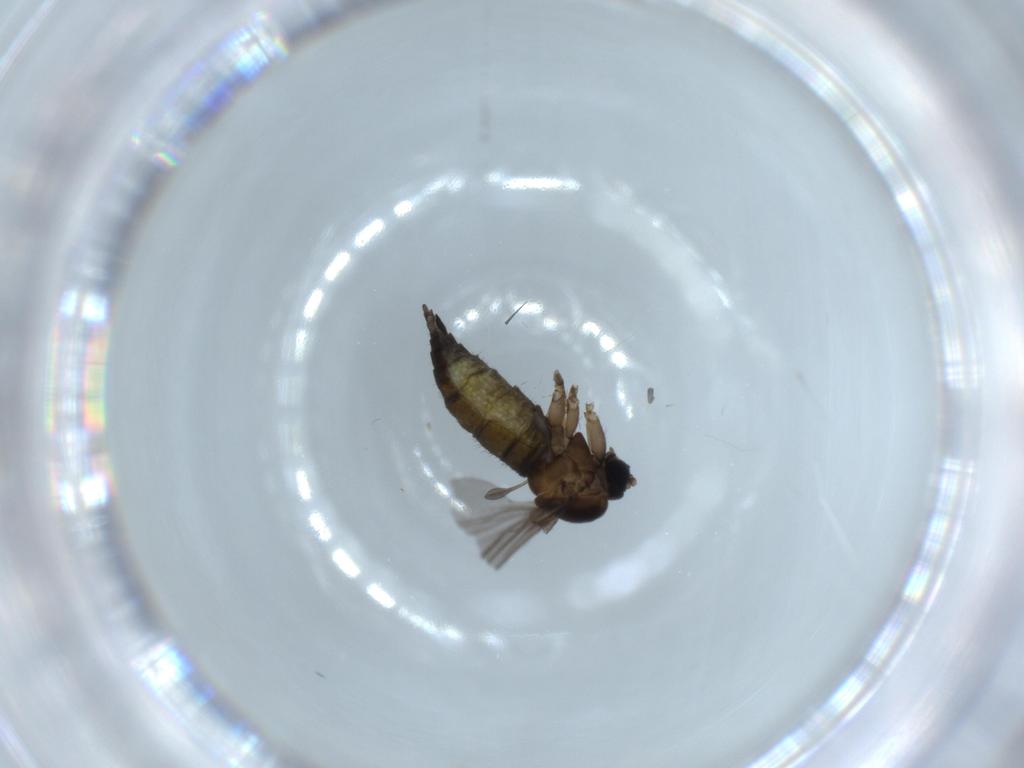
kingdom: Animalia
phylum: Arthropoda
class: Insecta
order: Diptera
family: Sciaridae
